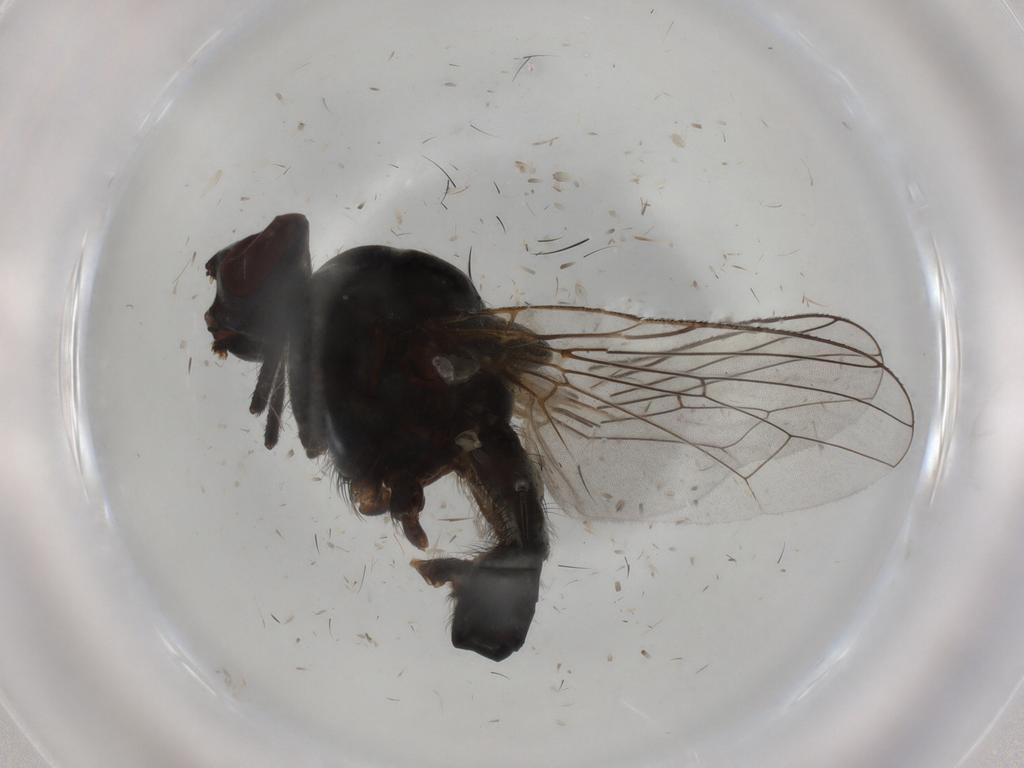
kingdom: Animalia
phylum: Arthropoda
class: Insecta
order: Diptera
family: Anthomyiidae
